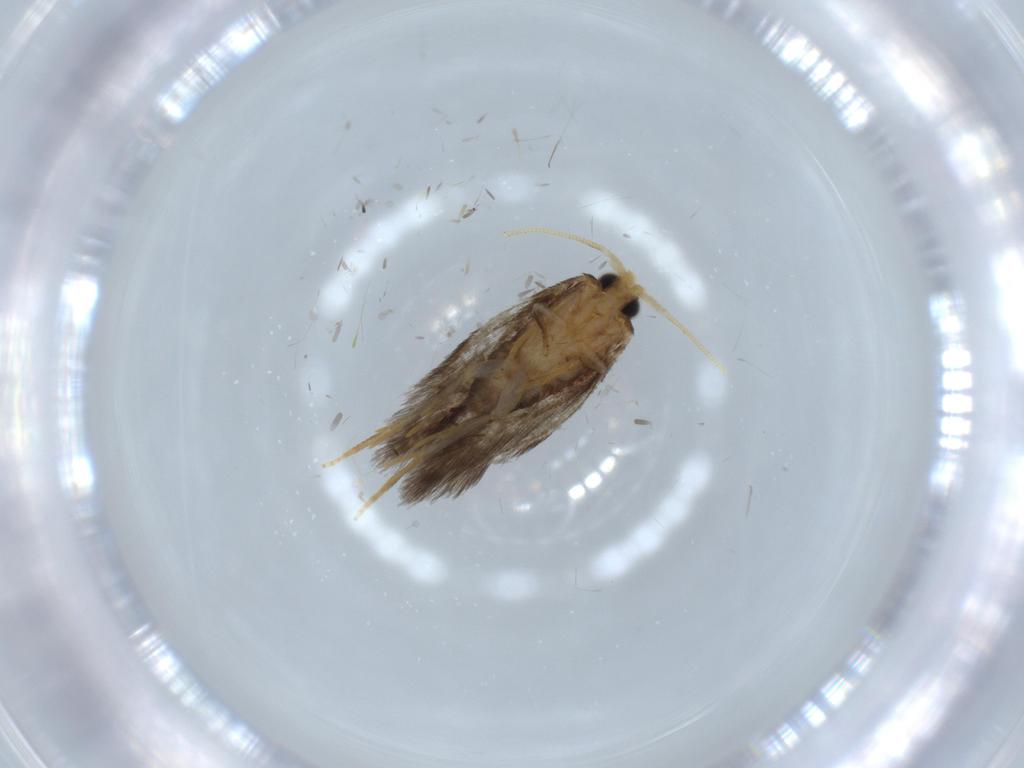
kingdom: Animalia
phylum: Arthropoda
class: Insecta
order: Lepidoptera
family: Nepticulidae
